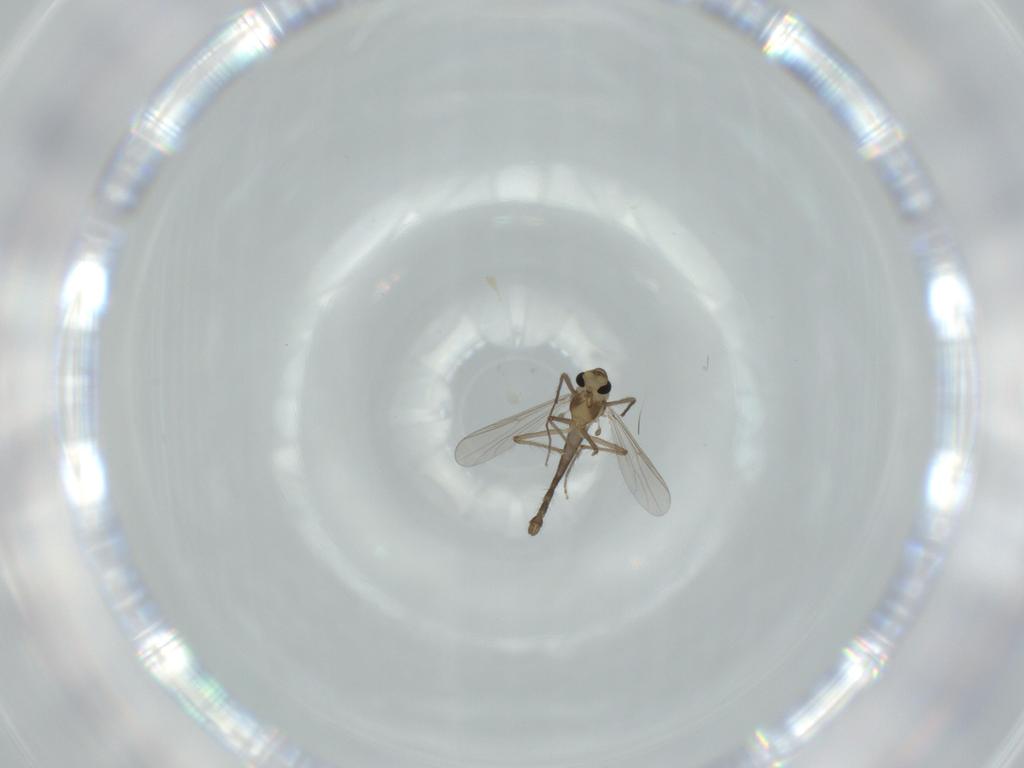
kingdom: Animalia
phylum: Arthropoda
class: Insecta
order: Diptera
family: Chironomidae
